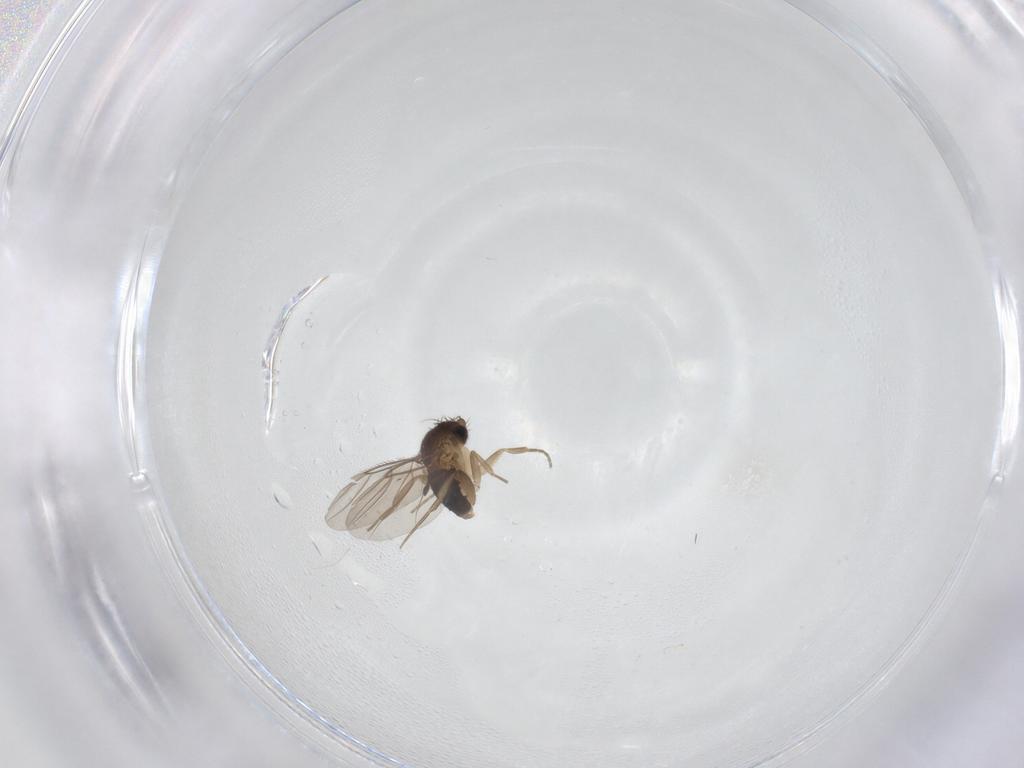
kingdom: Animalia
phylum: Arthropoda
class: Insecta
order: Diptera
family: Phoridae
